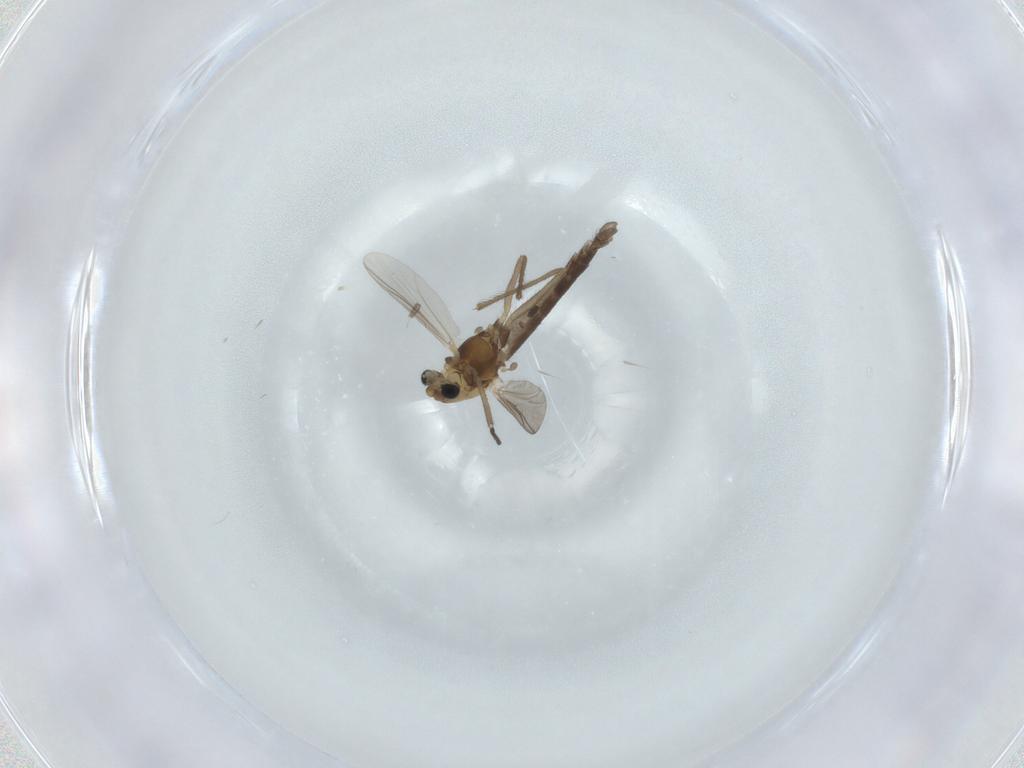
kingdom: Animalia
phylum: Arthropoda
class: Insecta
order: Diptera
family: Chironomidae
